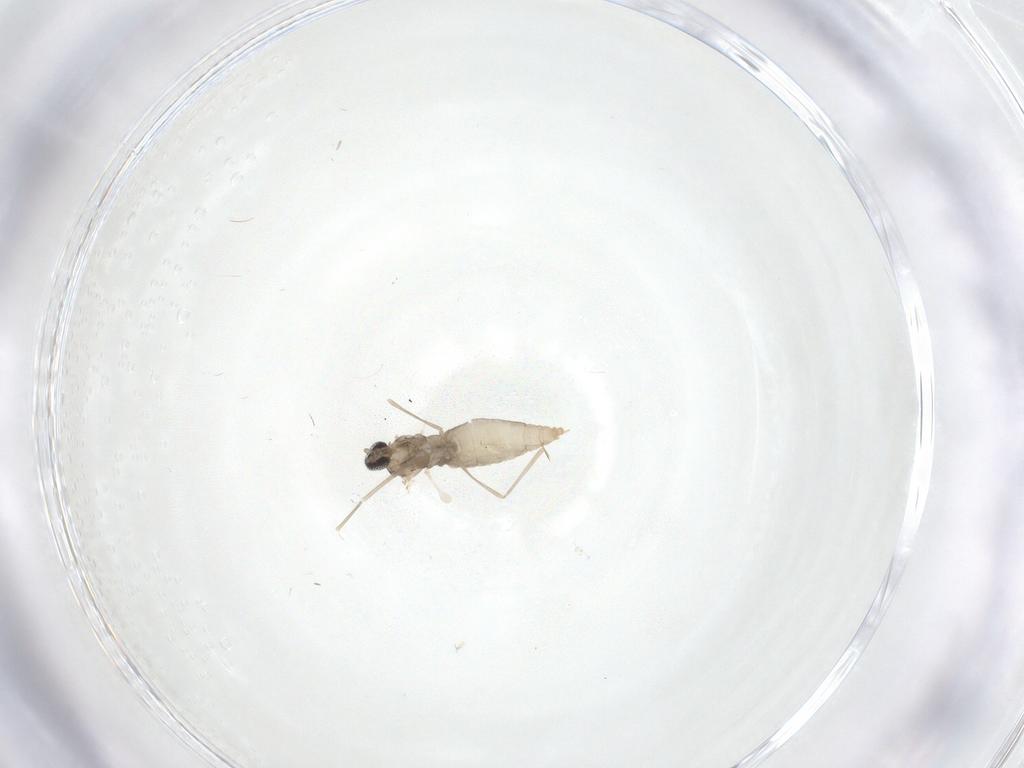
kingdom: Animalia
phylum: Arthropoda
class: Insecta
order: Diptera
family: Cecidomyiidae
